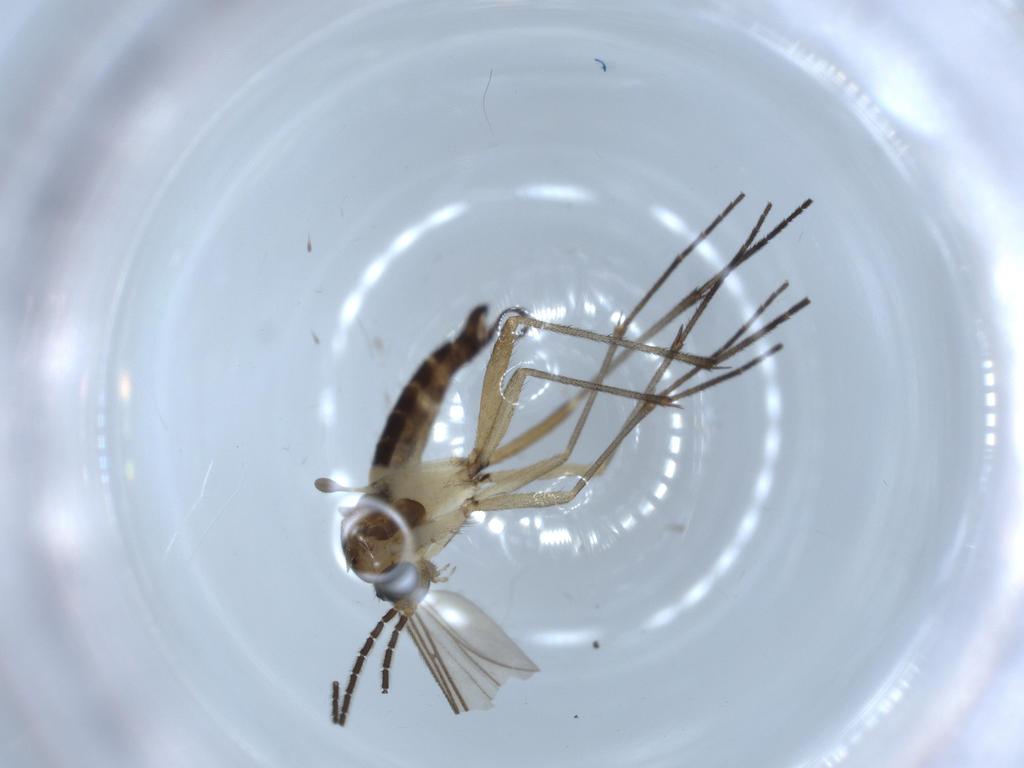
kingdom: Animalia
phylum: Arthropoda
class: Insecta
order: Diptera
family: Sciaridae
